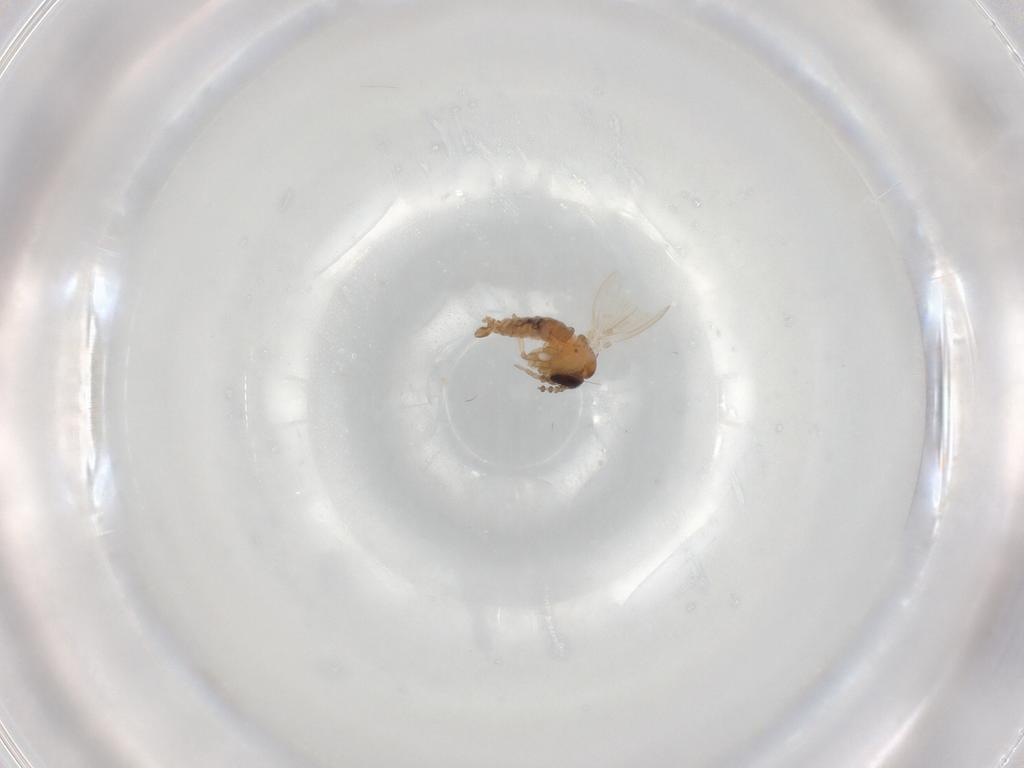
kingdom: Animalia
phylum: Arthropoda
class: Insecta
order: Diptera
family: Psychodidae
